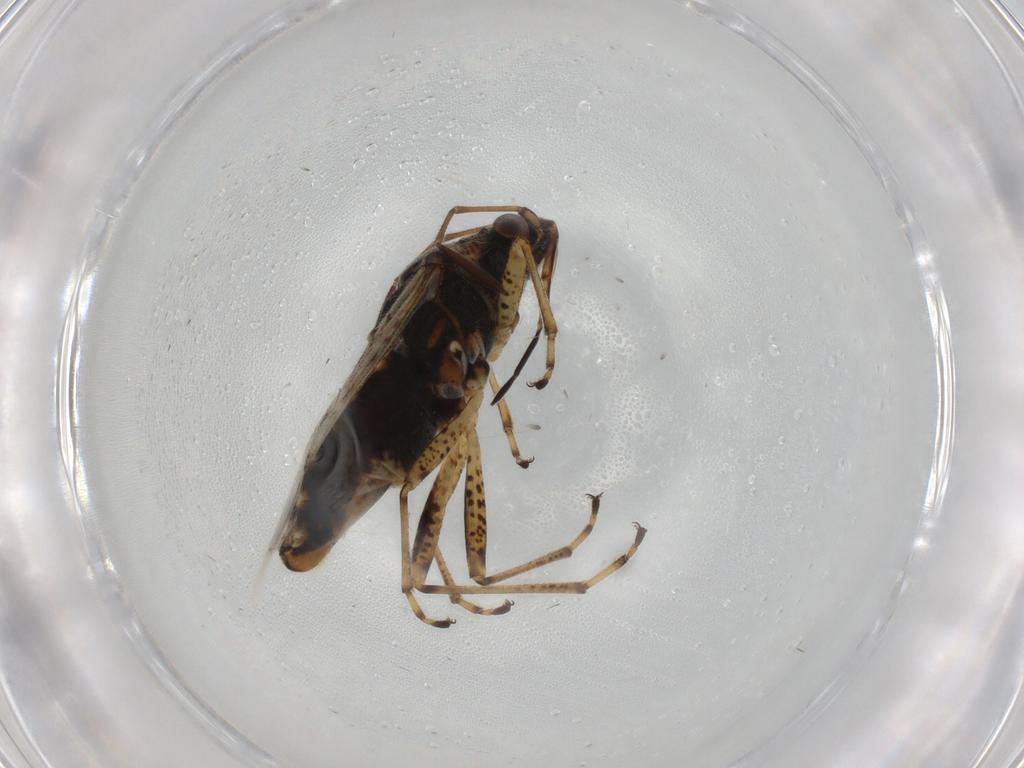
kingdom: Animalia
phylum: Arthropoda
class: Insecta
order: Hemiptera
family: Lygaeidae
